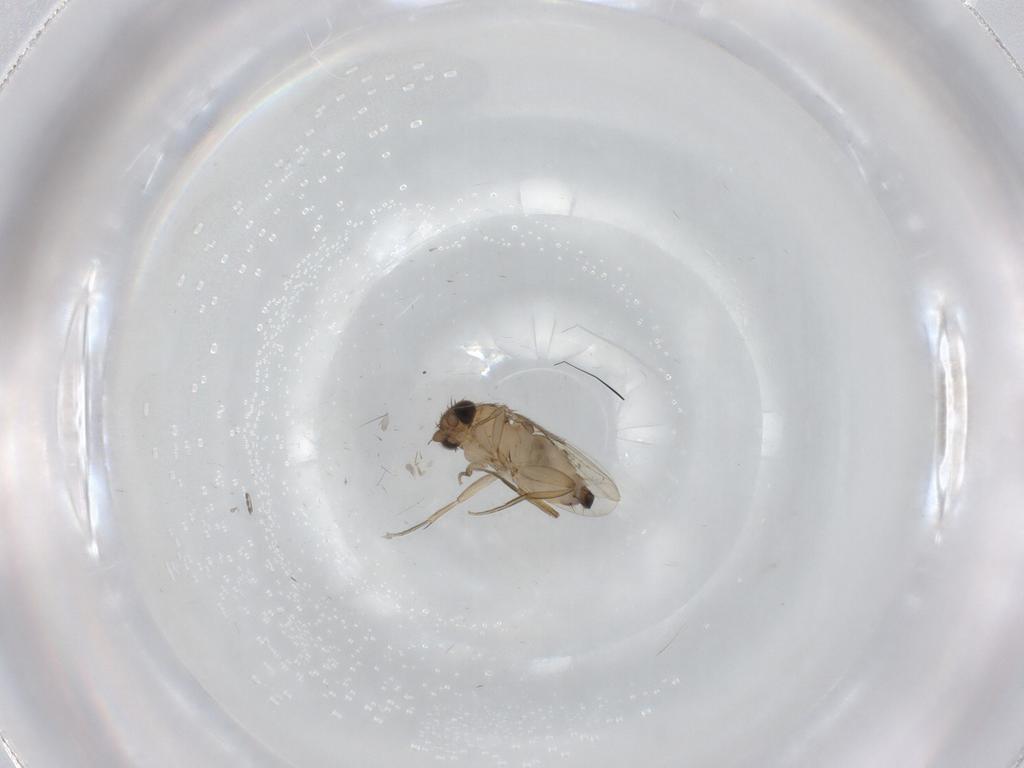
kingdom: Animalia
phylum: Arthropoda
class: Insecta
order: Diptera
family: Phoridae
